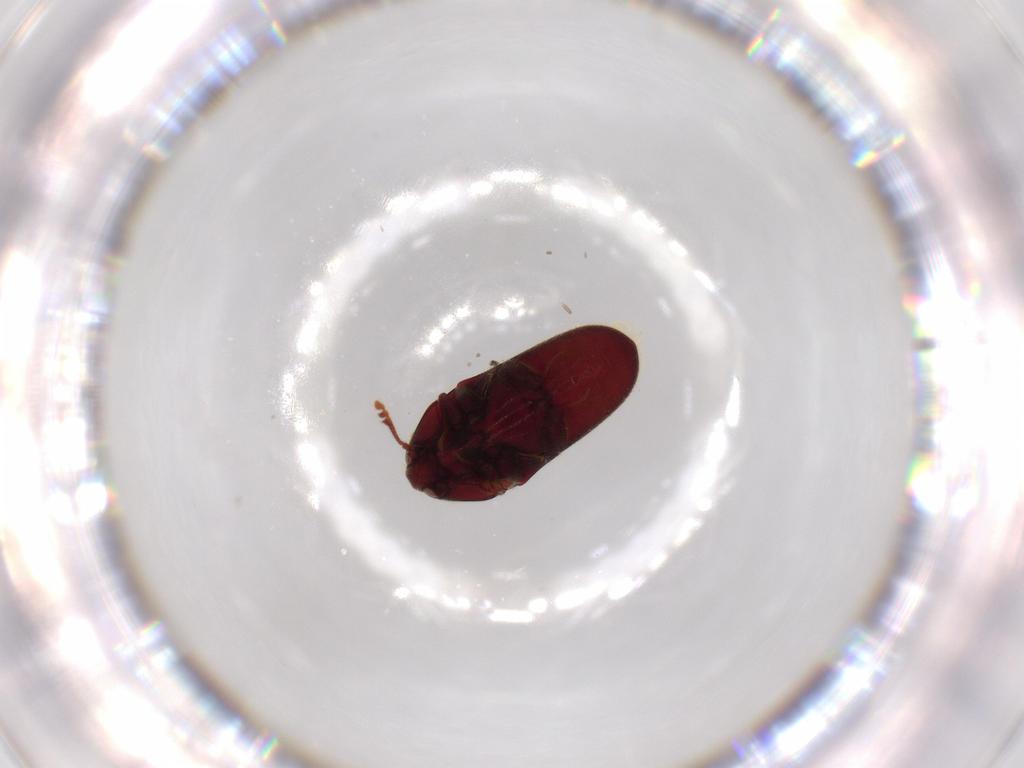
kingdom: Animalia
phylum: Arthropoda
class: Insecta
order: Coleoptera
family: Throscidae
